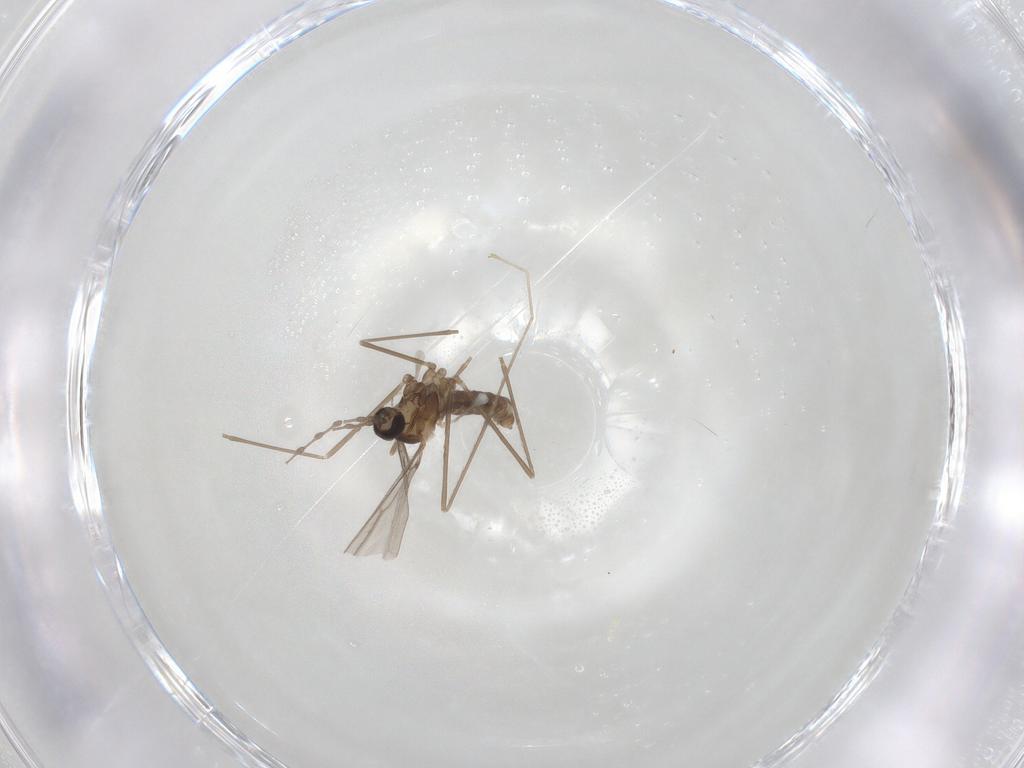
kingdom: Animalia
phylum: Arthropoda
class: Insecta
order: Diptera
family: Cecidomyiidae
